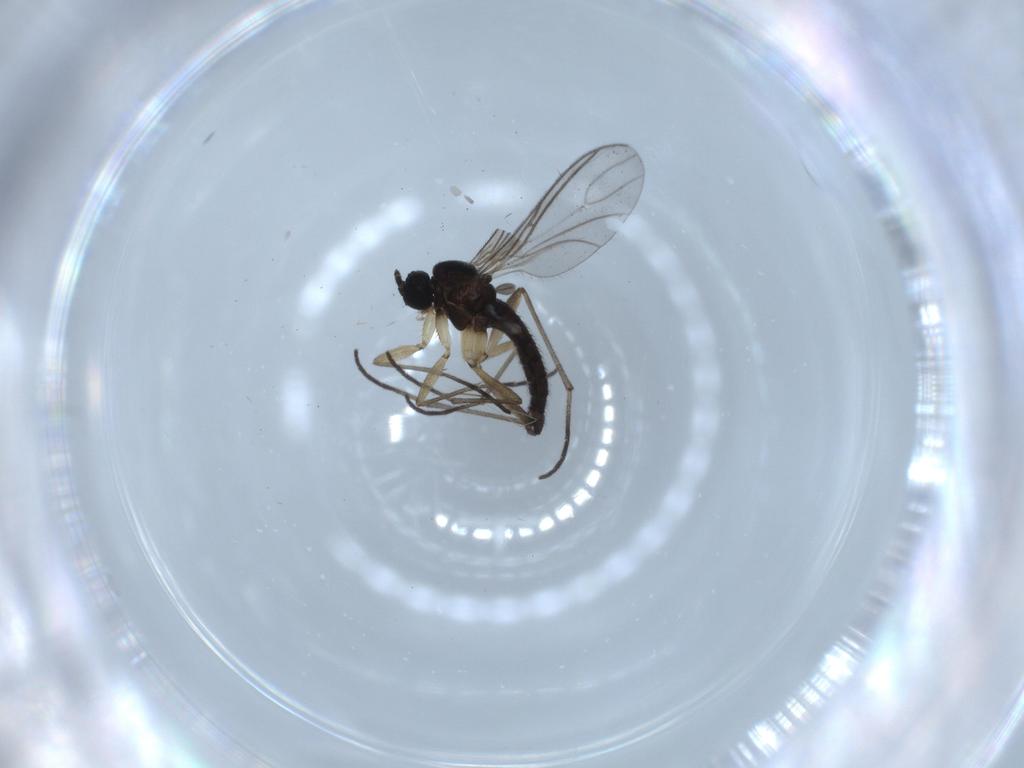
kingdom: Animalia
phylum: Arthropoda
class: Insecta
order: Diptera
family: Sciaridae
